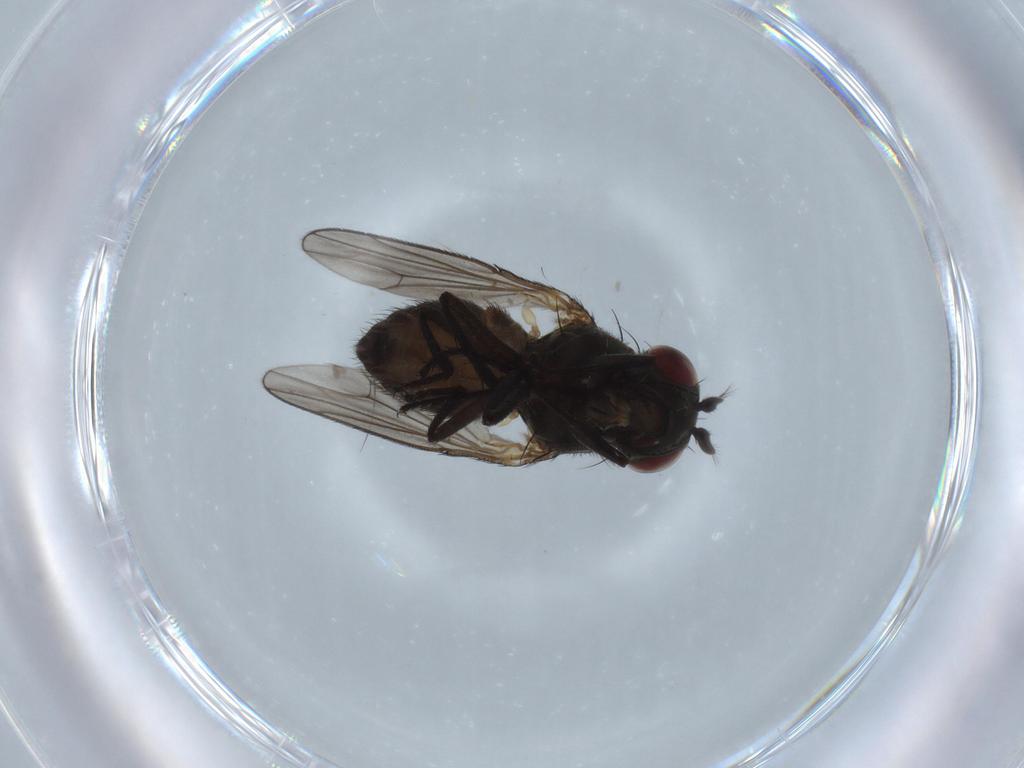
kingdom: Animalia
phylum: Arthropoda
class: Insecta
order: Diptera
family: Ephydridae
